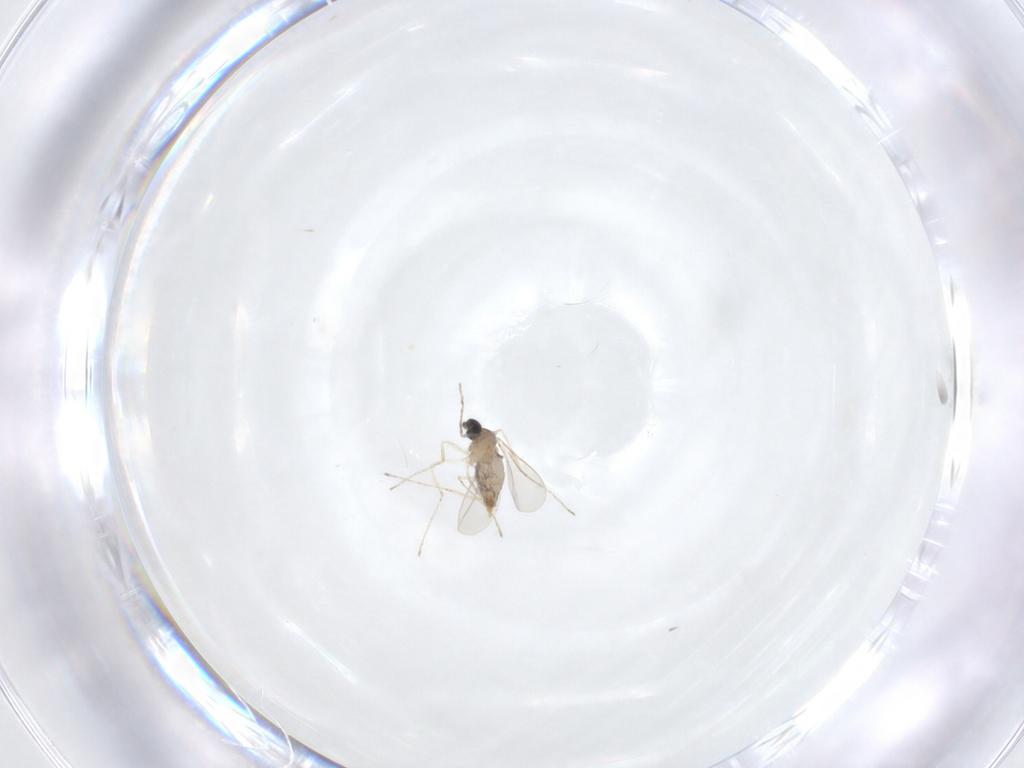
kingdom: Animalia
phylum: Arthropoda
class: Insecta
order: Diptera
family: Cecidomyiidae
